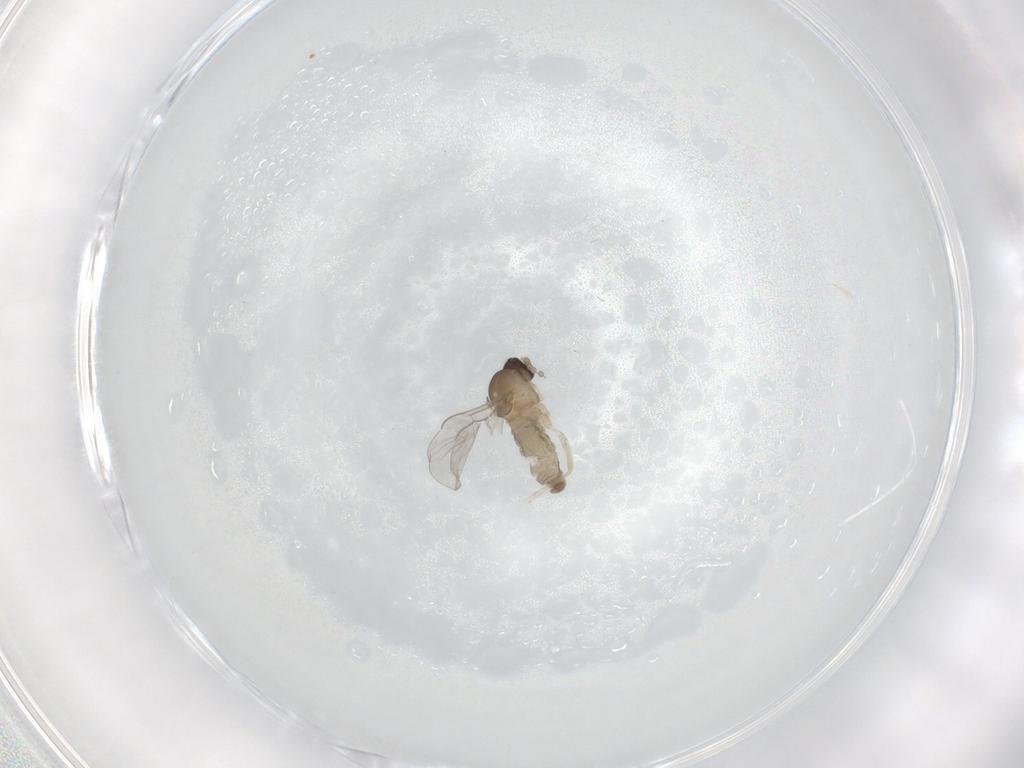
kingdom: Animalia
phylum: Arthropoda
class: Insecta
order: Diptera
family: Cecidomyiidae
